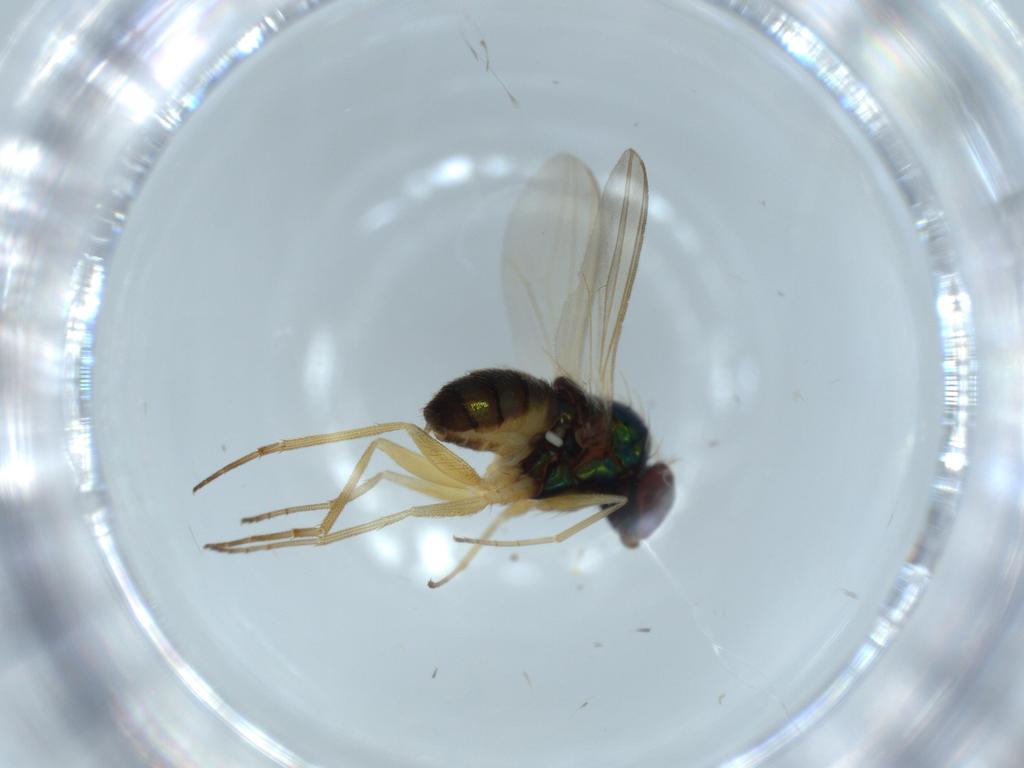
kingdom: Animalia
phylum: Arthropoda
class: Insecta
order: Diptera
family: Dolichopodidae
